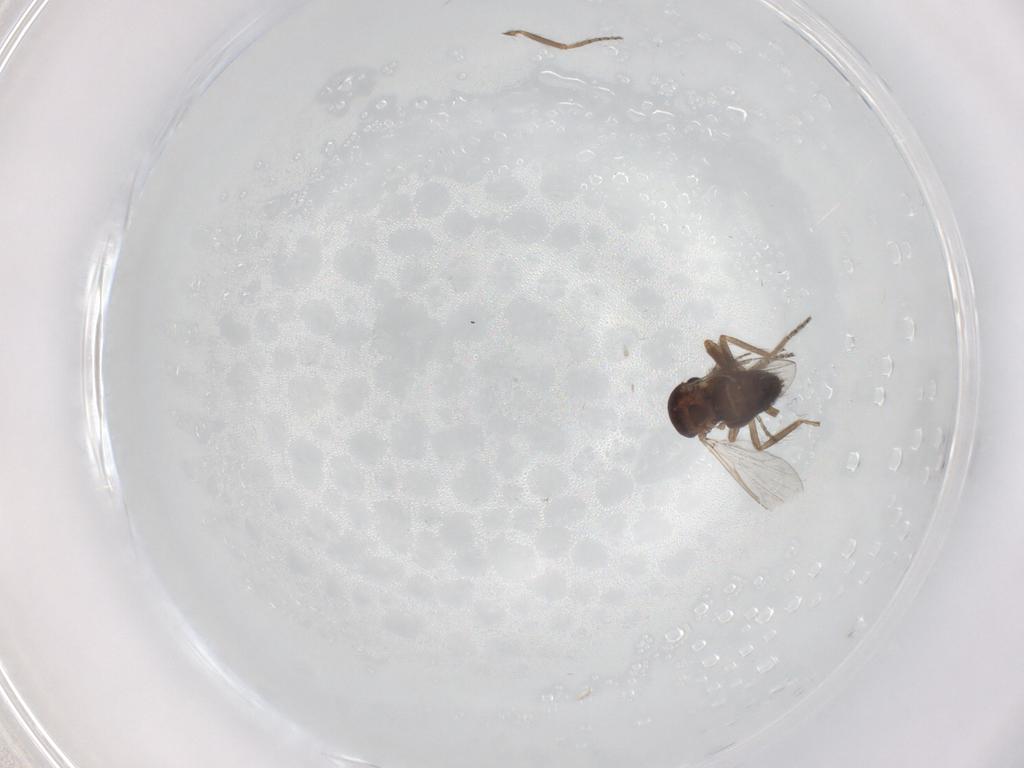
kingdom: Animalia
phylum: Arthropoda
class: Insecta
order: Diptera
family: Ceratopogonidae
